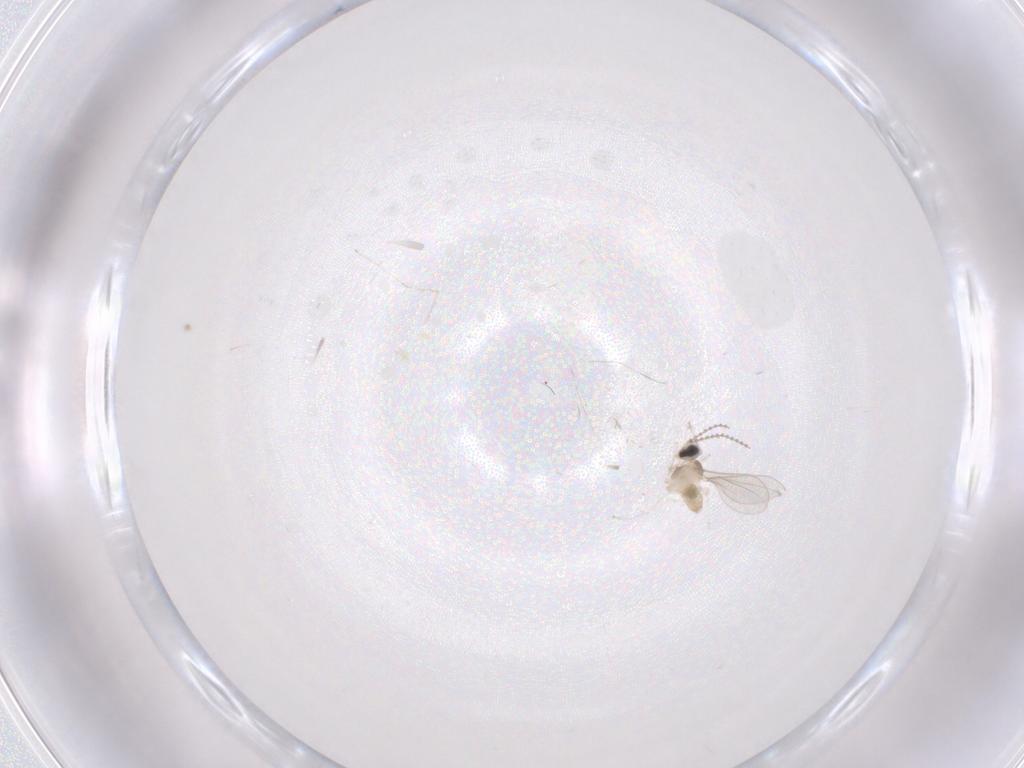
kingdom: Animalia
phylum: Arthropoda
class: Insecta
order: Diptera
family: Cecidomyiidae
